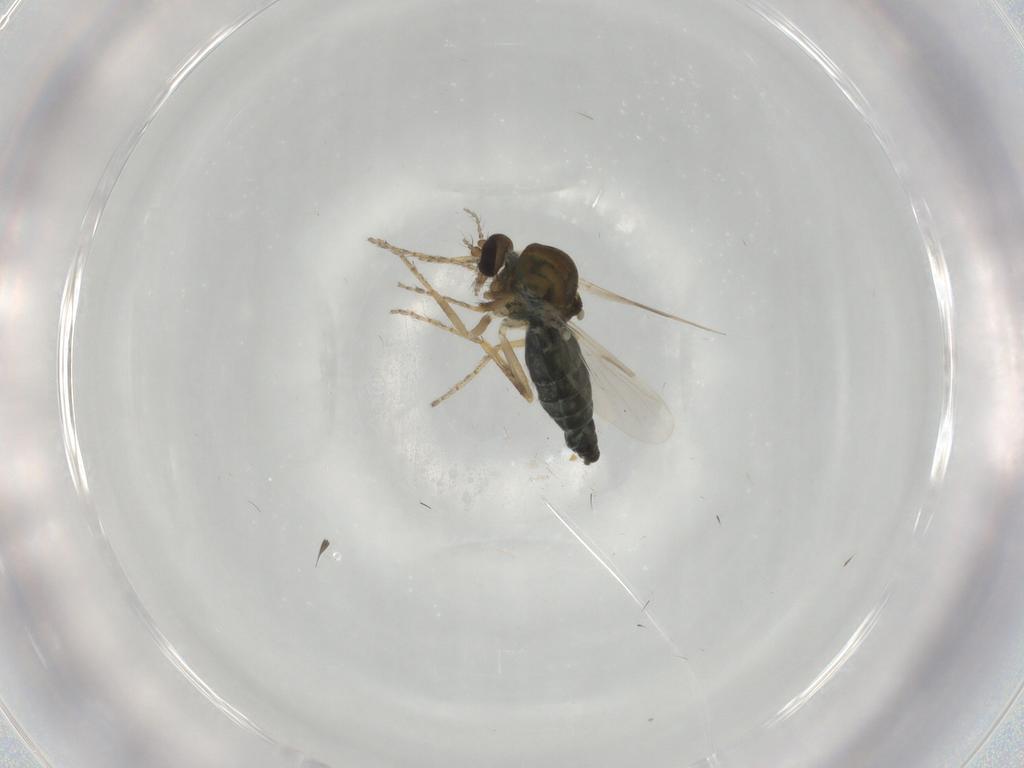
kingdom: Animalia
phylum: Arthropoda
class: Insecta
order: Diptera
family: Ceratopogonidae
